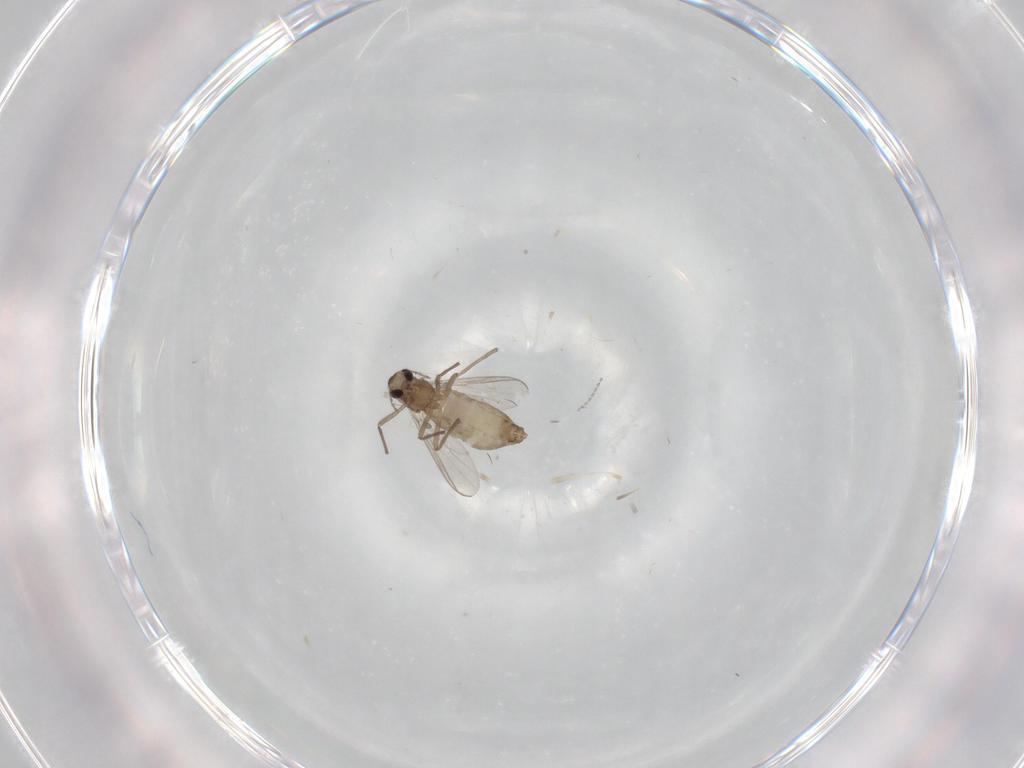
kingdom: Animalia
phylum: Arthropoda
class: Insecta
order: Diptera
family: Chironomidae
